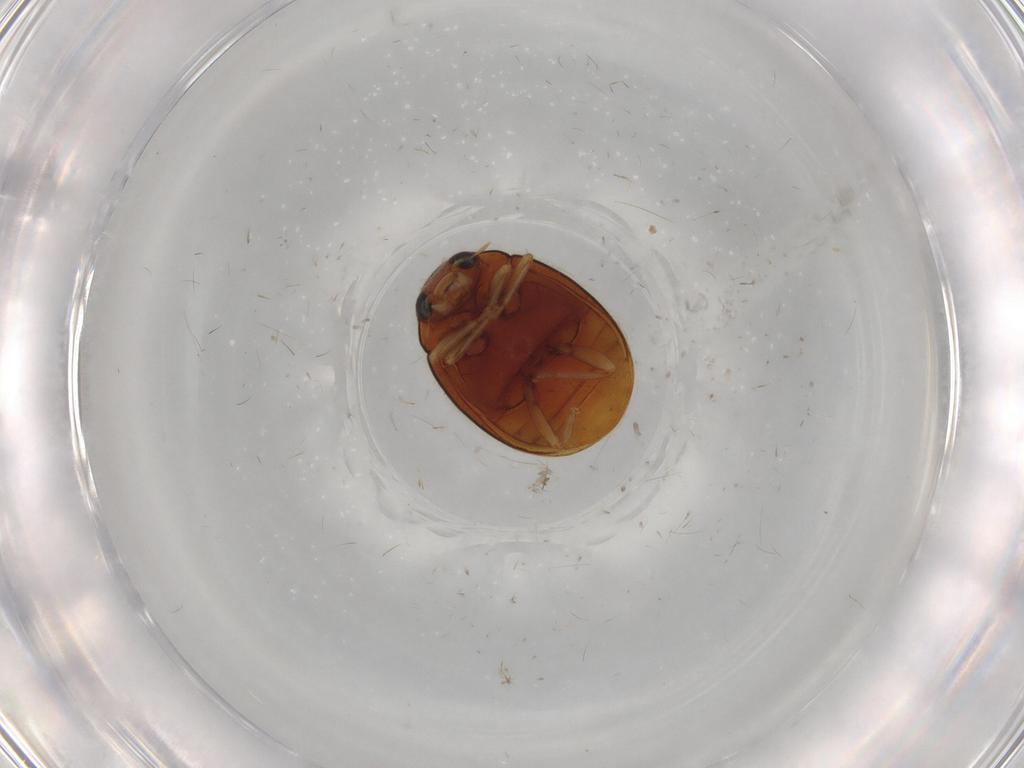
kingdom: Animalia
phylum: Arthropoda
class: Insecta
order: Coleoptera
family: Coccinellidae
